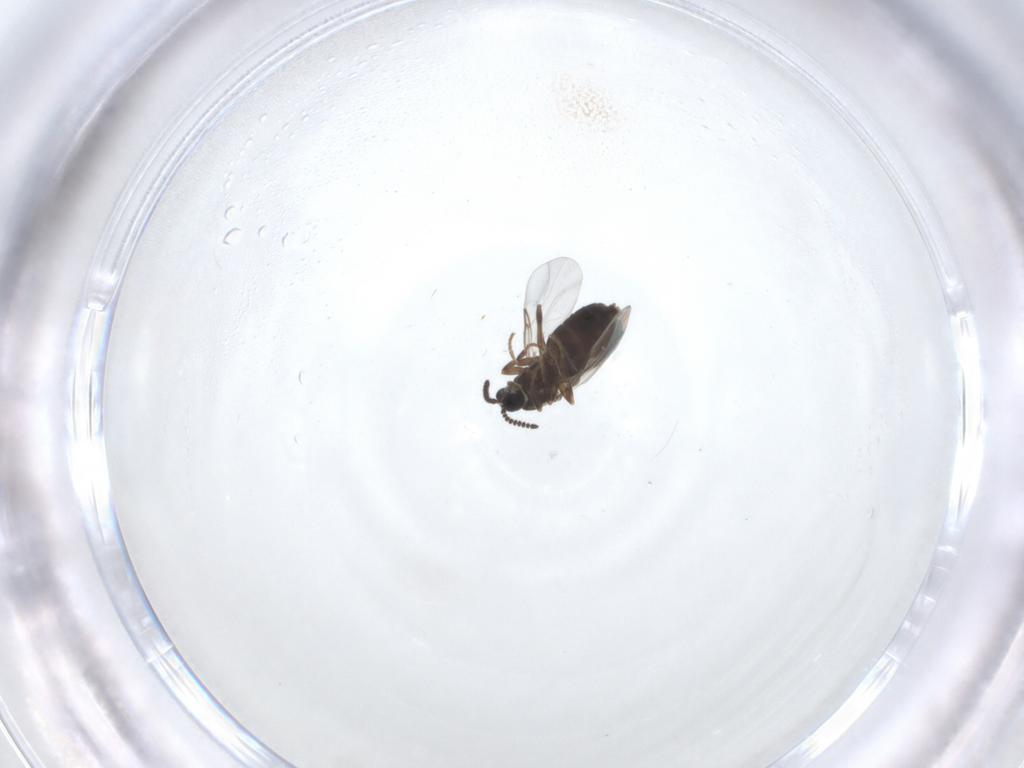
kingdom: Animalia
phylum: Arthropoda
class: Insecta
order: Diptera
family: Scatopsidae
